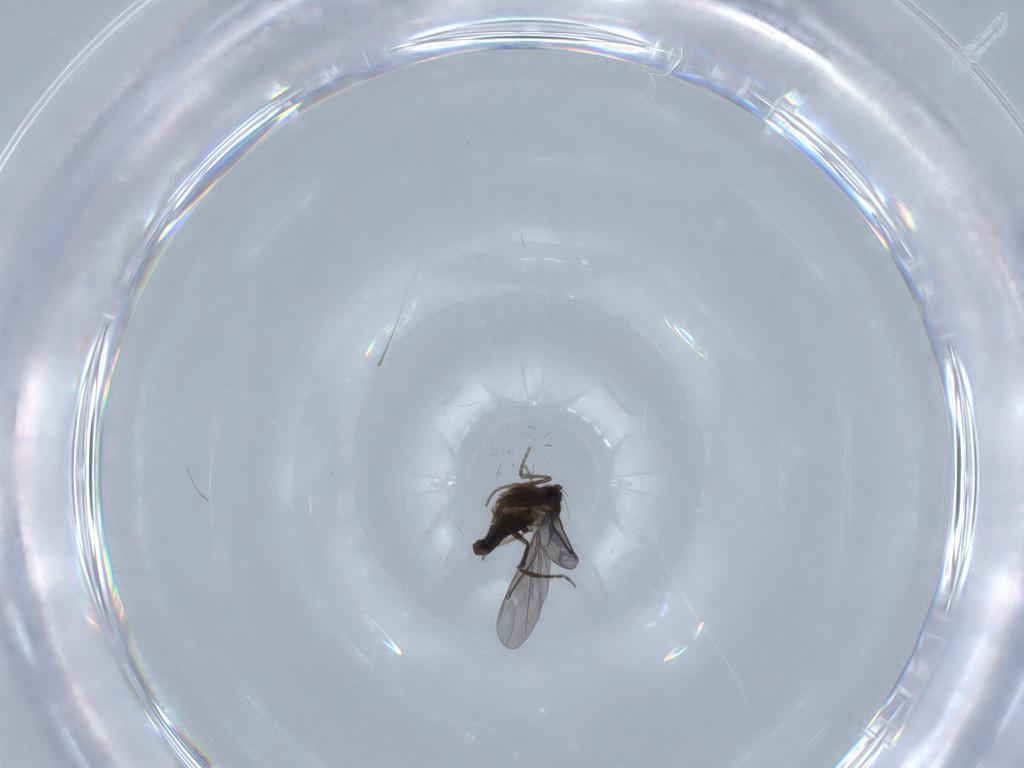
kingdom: Animalia
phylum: Arthropoda
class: Insecta
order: Diptera
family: Phoridae
